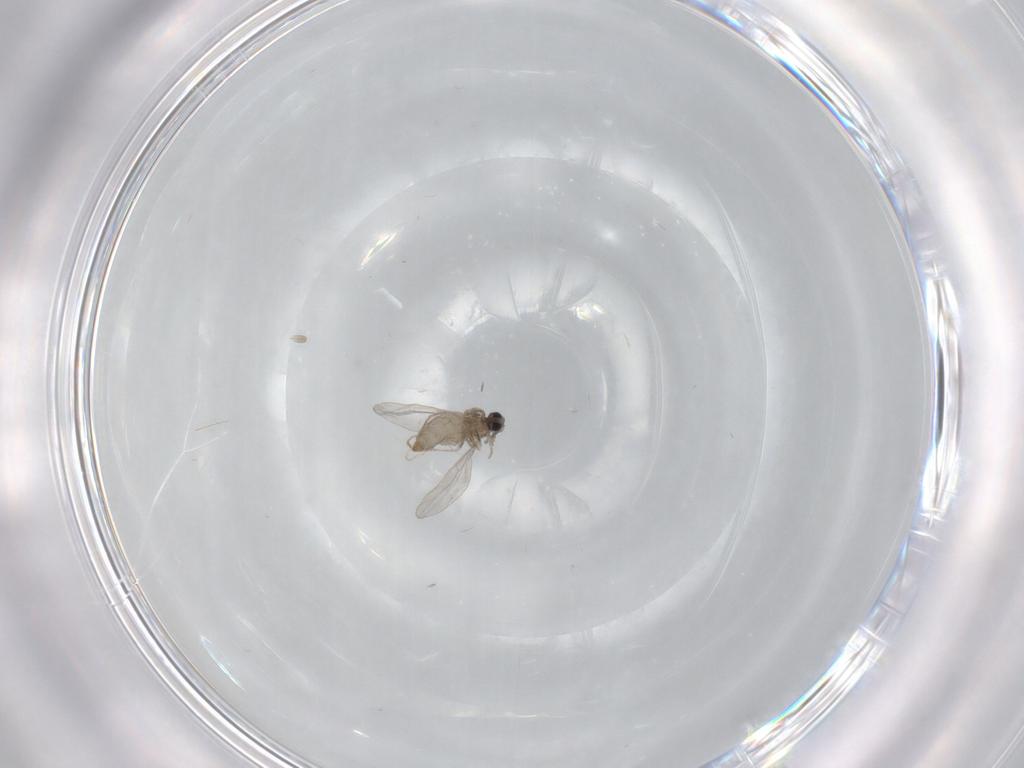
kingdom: Animalia
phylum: Arthropoda
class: Insecta
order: Diptera
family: Cecidomyiidae
